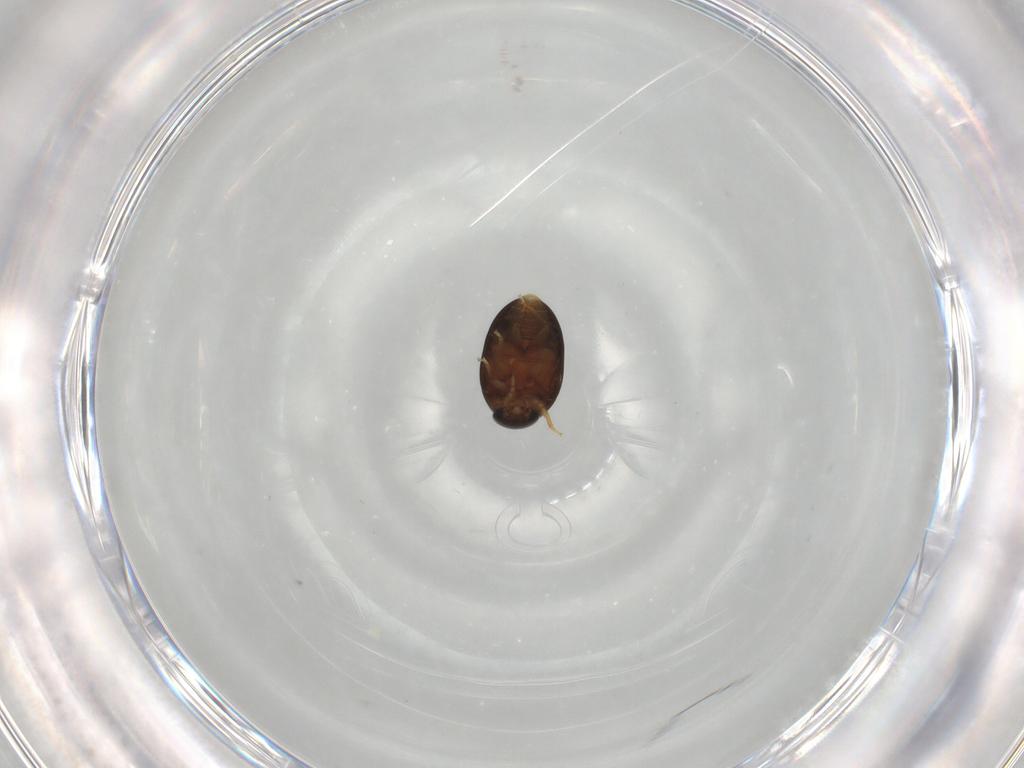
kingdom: Animalia
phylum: Arthropoda
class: Insecta
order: Coleoptera
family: Phalacridae
